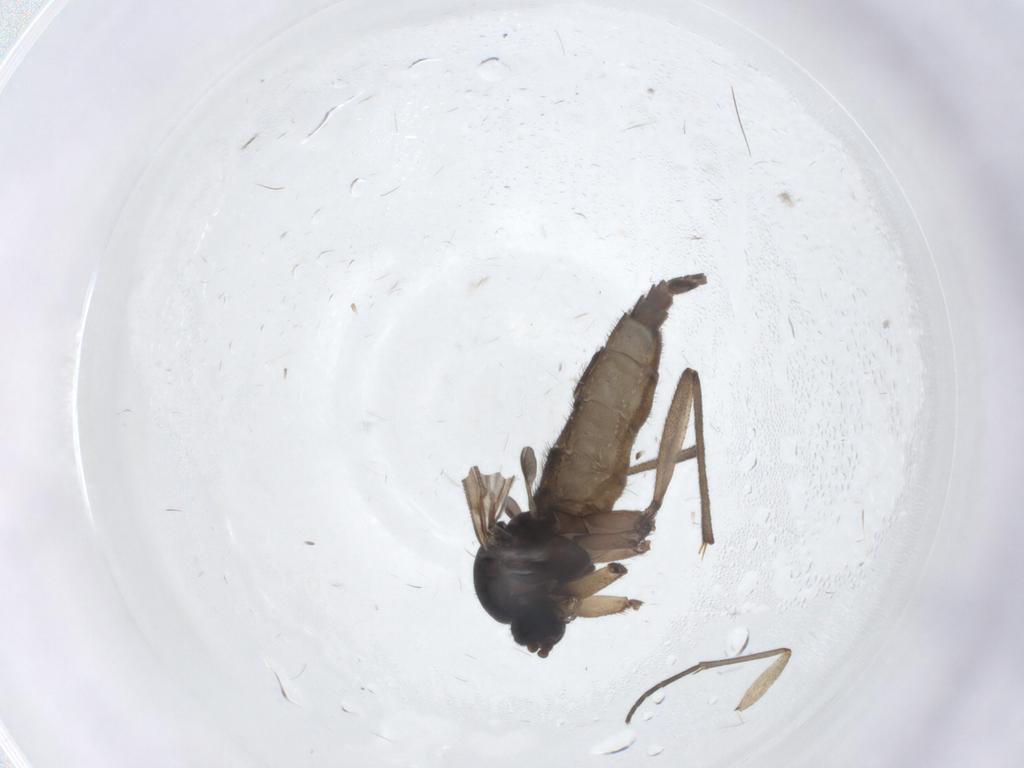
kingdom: Animalia
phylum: Arthropoda
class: Insecta
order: Diptera
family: Sciaridae
